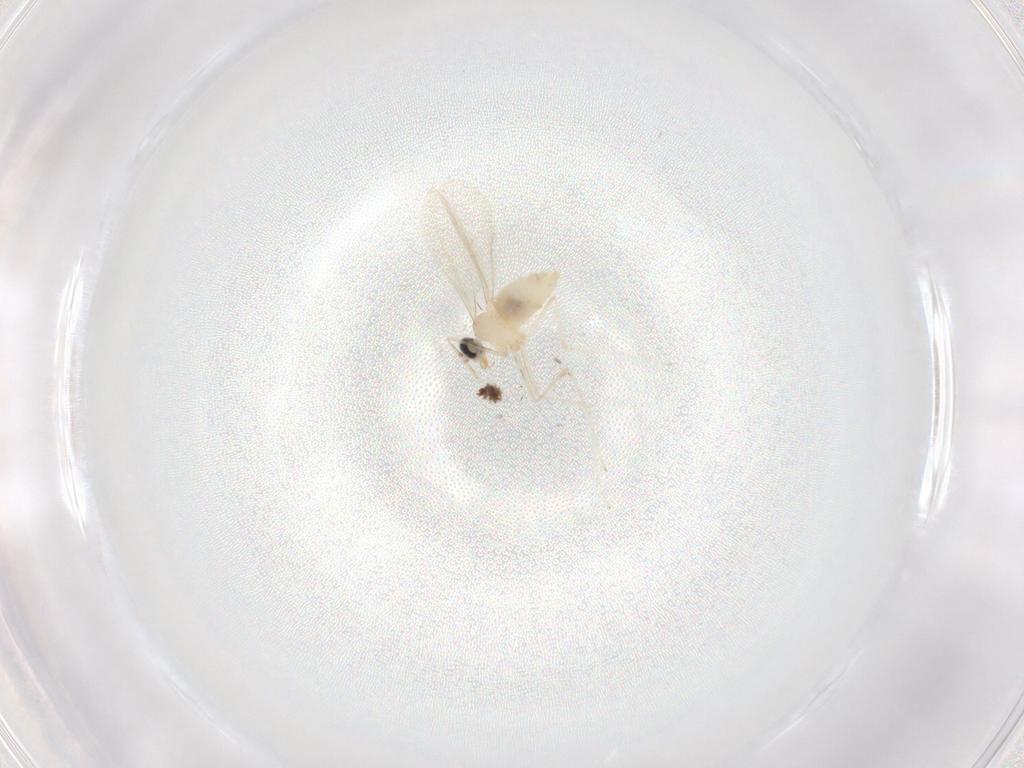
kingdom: Animalia
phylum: Arthropoda
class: Insecta
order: Diptera
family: Cecidomyiidae
